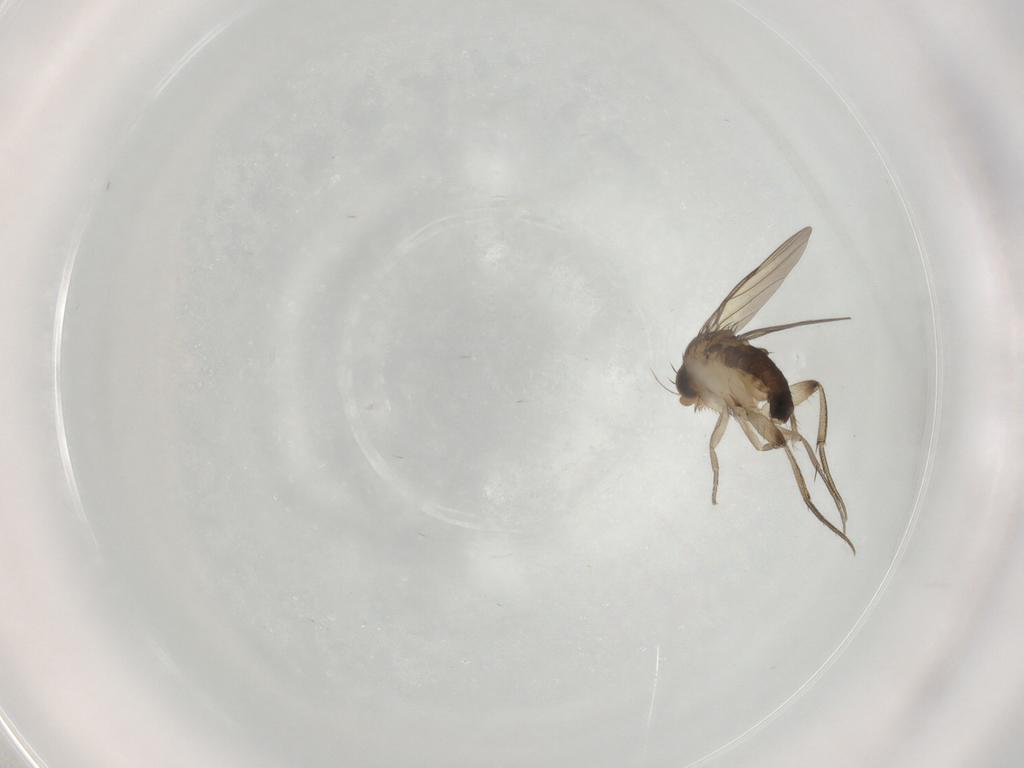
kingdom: Animalia
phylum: Arthropoda
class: Insecta
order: Diptera
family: Phoridae
